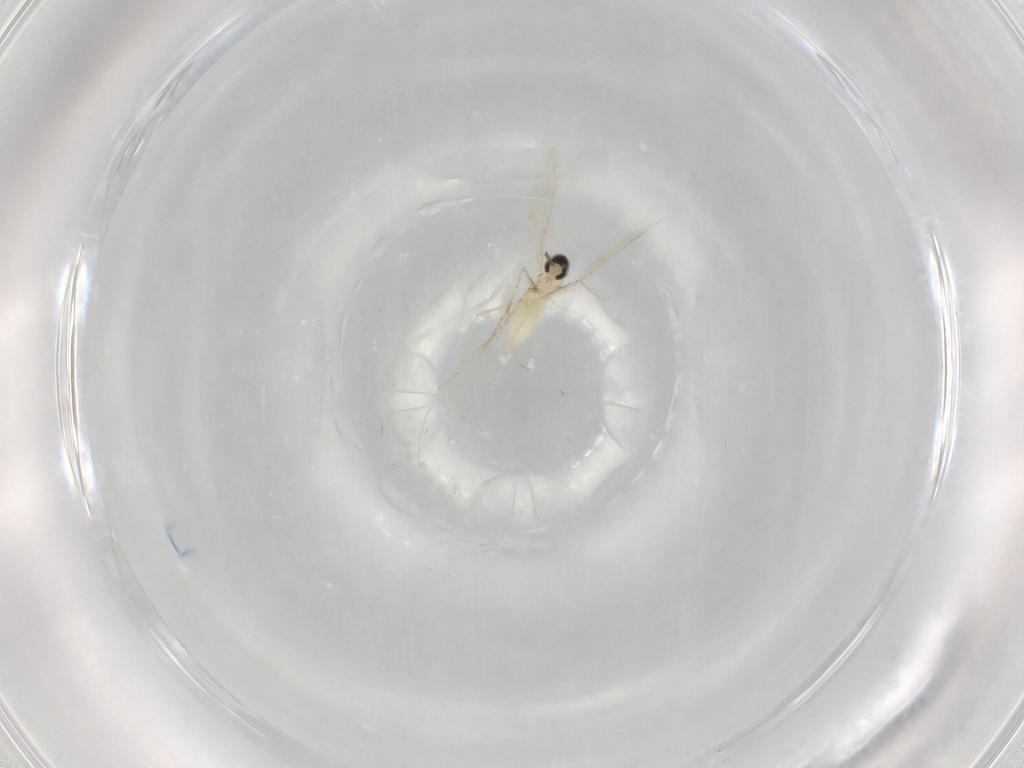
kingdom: Animalia
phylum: Arthropoda
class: Insecta
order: Diptera
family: Cecidomyiidae
